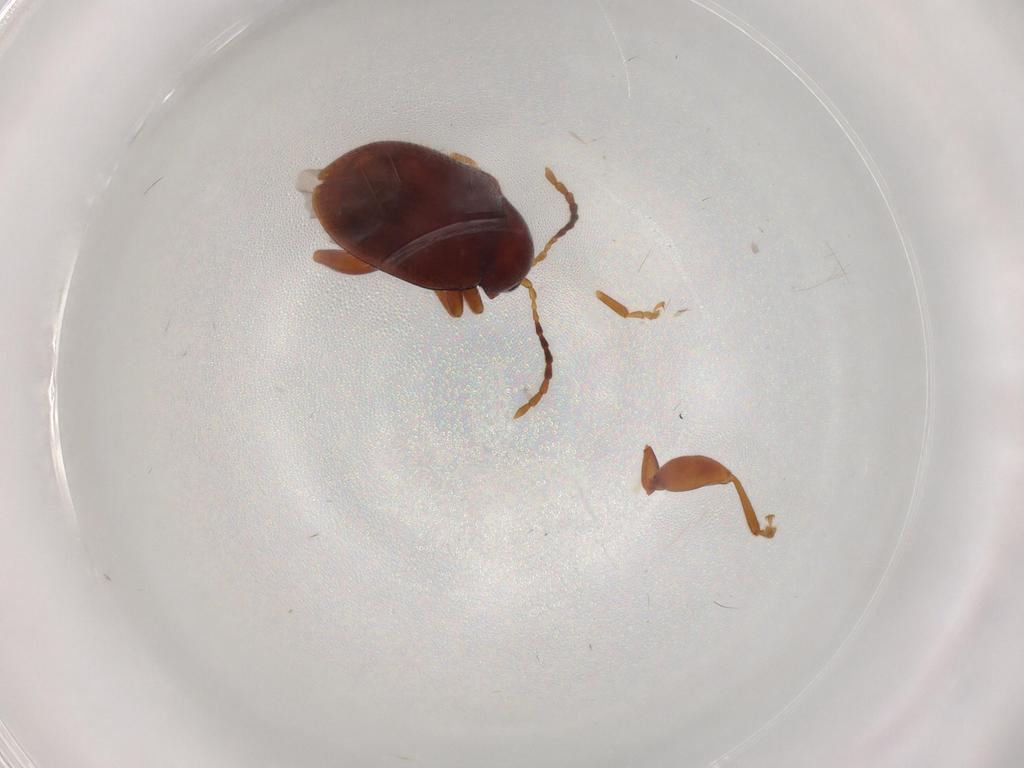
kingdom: Animalia
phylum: Arthropoda
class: Insecta
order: Coleoptera
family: Chrysomelidae
